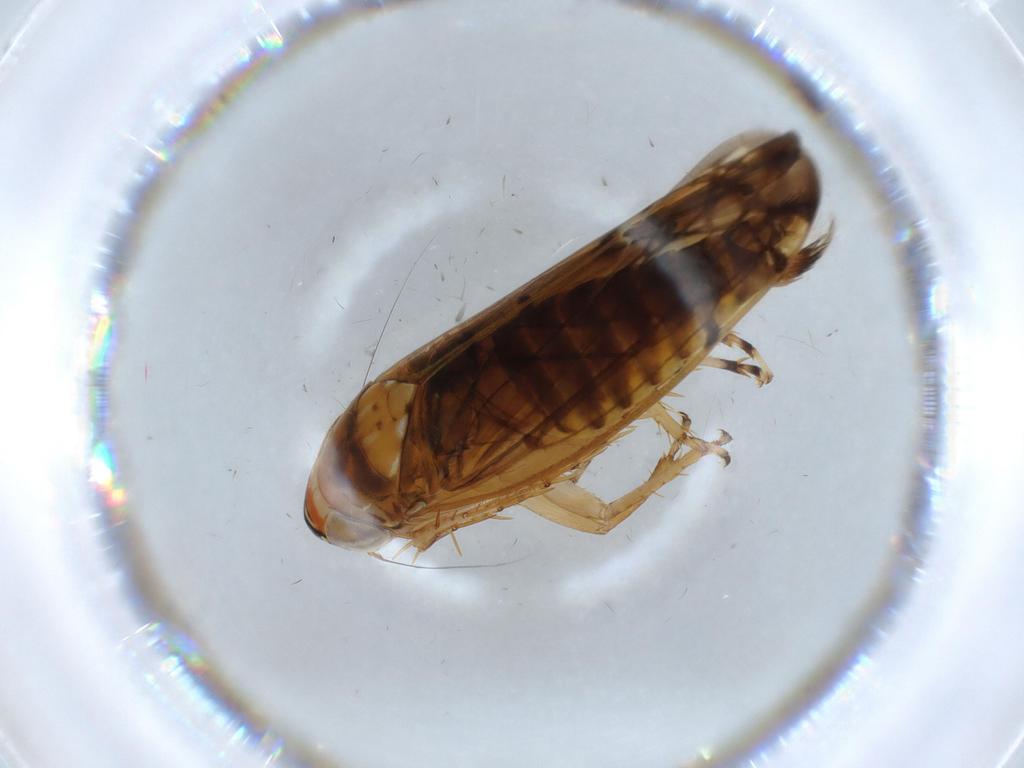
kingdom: Animalia
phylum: Arthropoda
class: Insecta
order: Hemiptera
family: Cicadellidae
